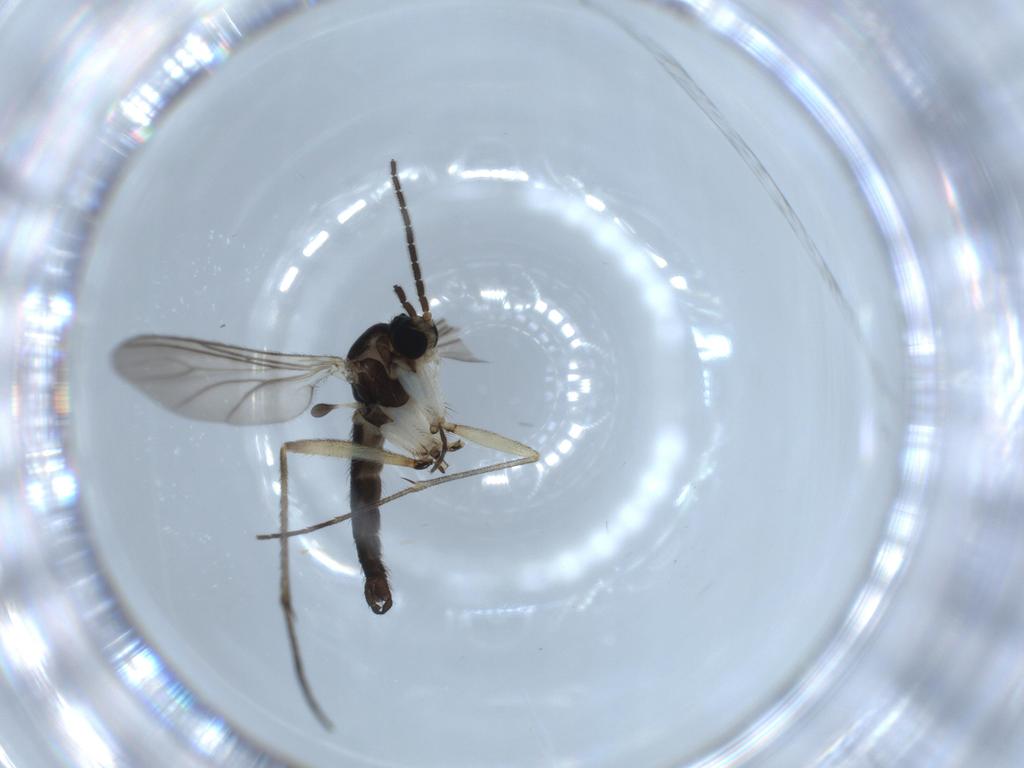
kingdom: Animalia
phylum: Arthropoda
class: Insecta
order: Diptera
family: Sciaridae
